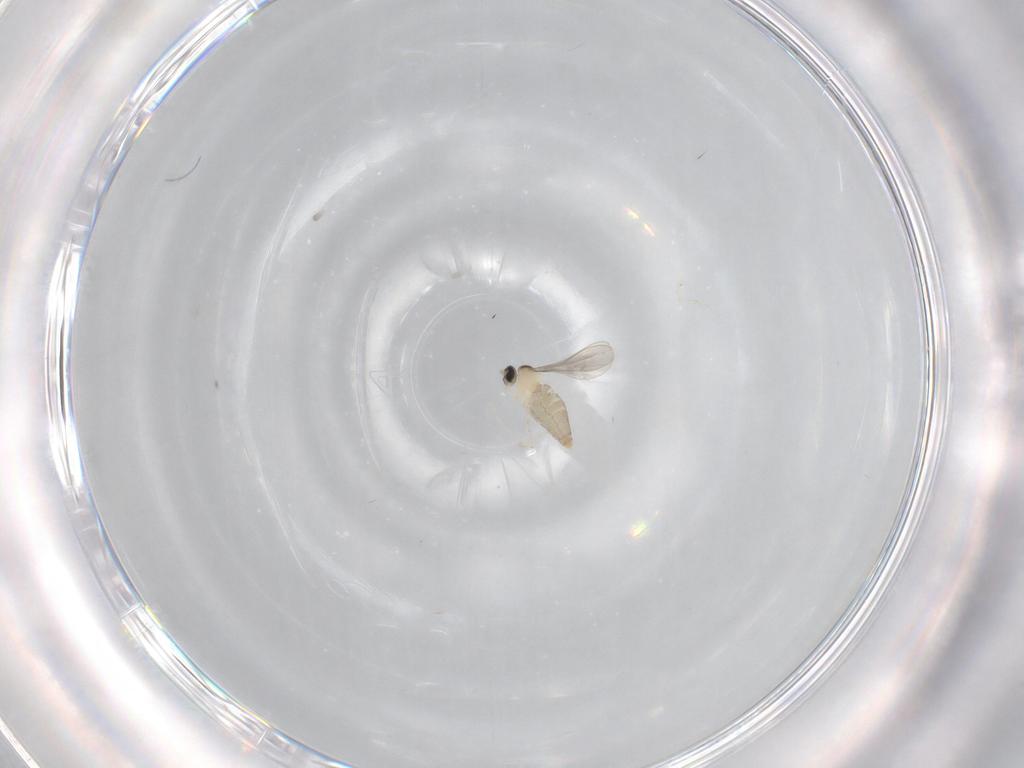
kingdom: Animalia
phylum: Arthropoda
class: Insecta
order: Diptera
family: Cecidomyiidae
